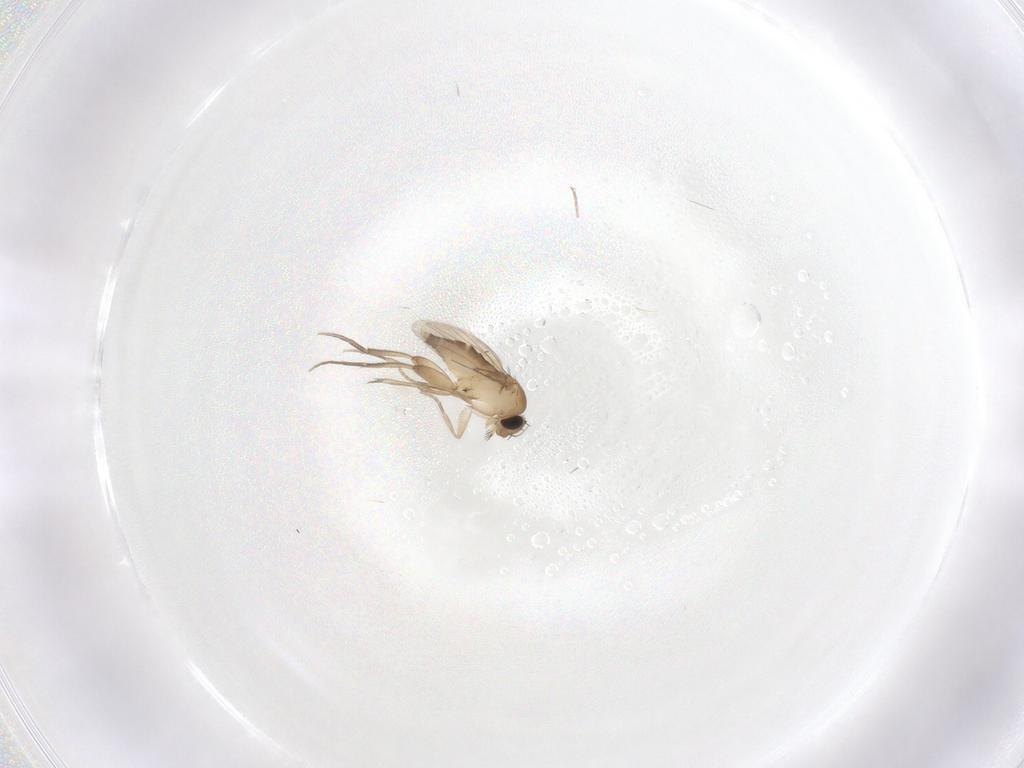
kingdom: Animalia
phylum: Arthropoda
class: Insecta
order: Diptera
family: Phoridae
